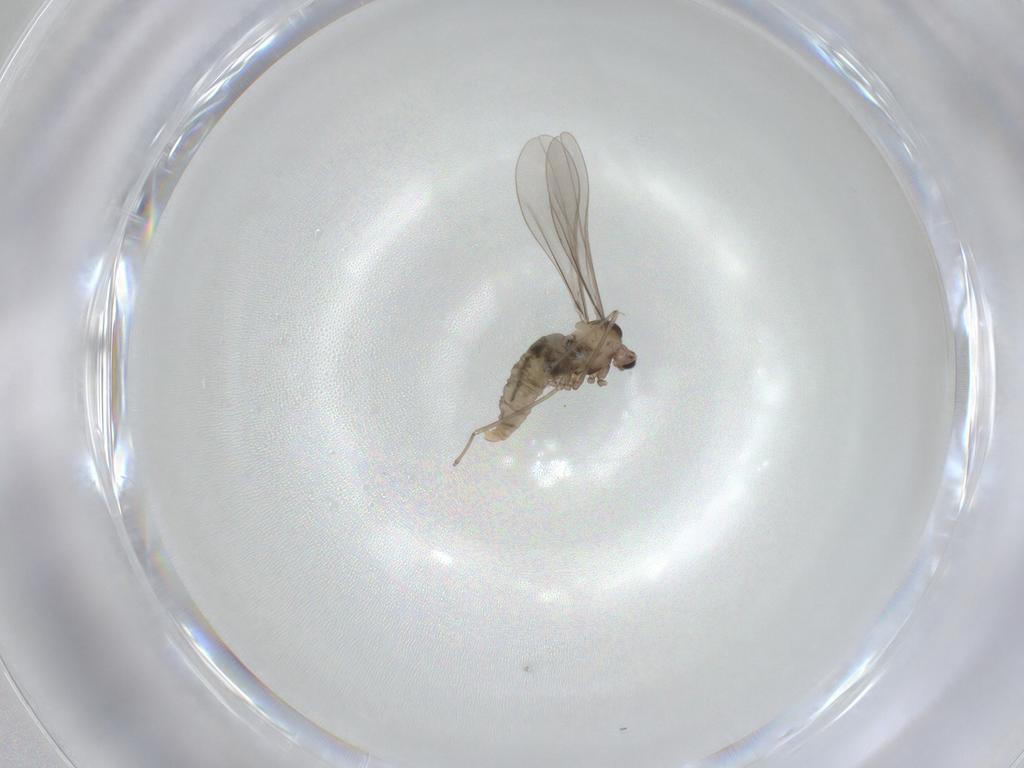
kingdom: Animalia
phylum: Arthropoda
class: Insecta
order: Diptera
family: Cecidomyiidae
